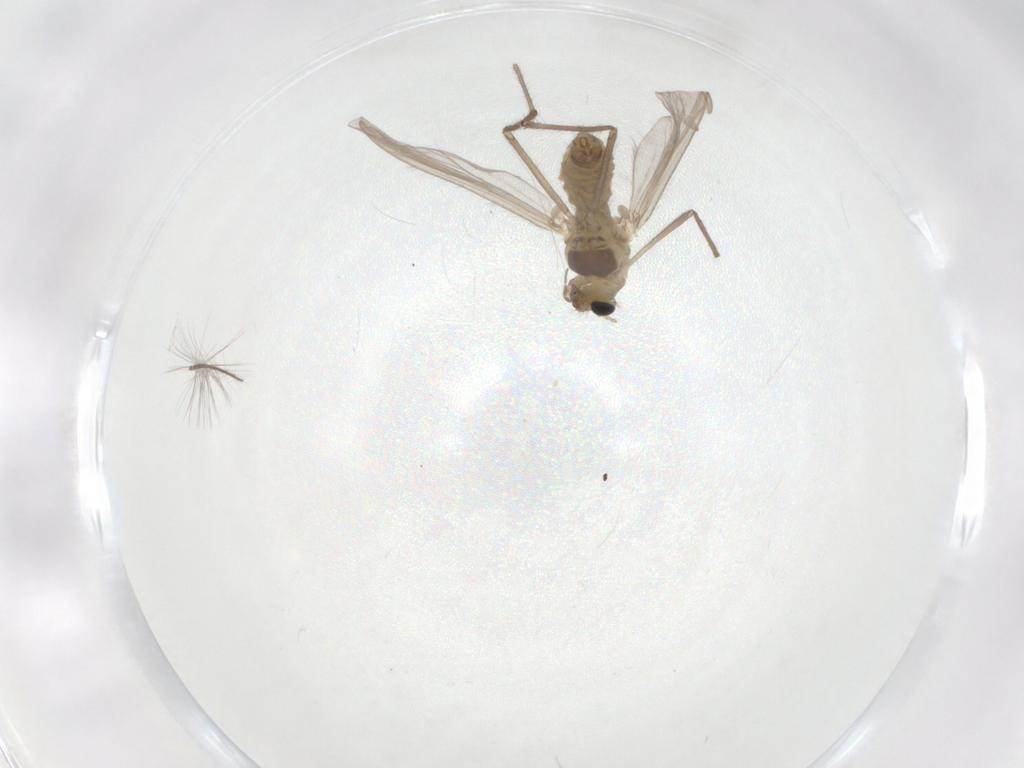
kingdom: Animalia
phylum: Arthropoda
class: Insecta
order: Diptera
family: Chironomidae
